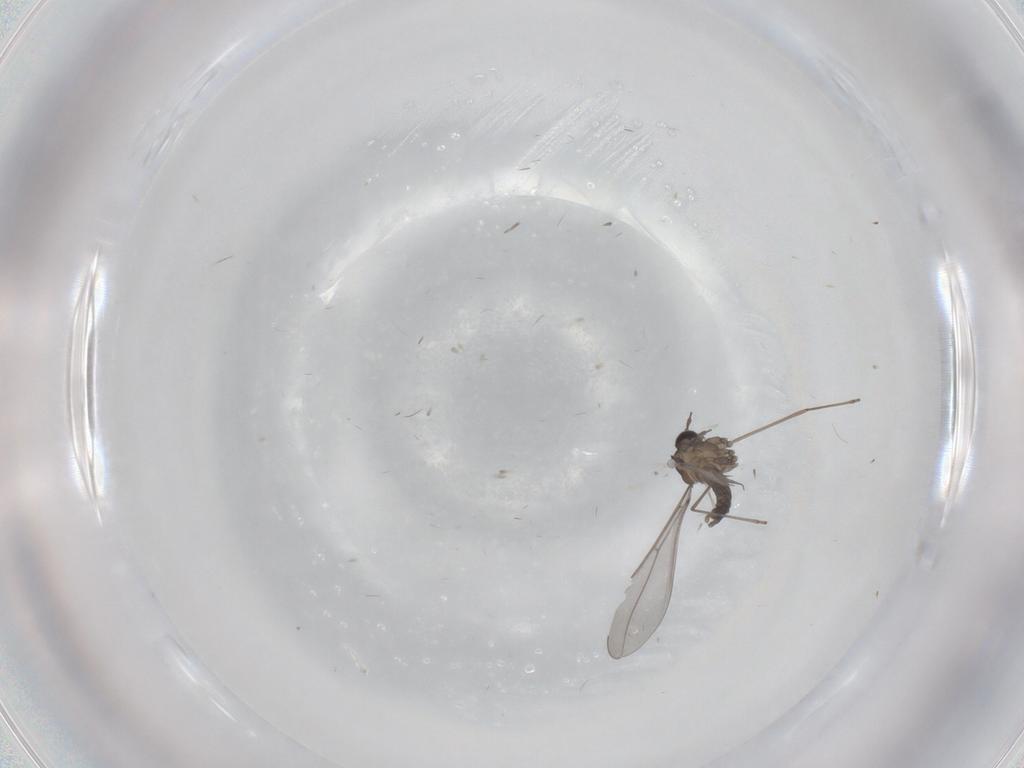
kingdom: Animalia
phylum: Arthropoda
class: Insecta
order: Diptera
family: Dolichopodidae
